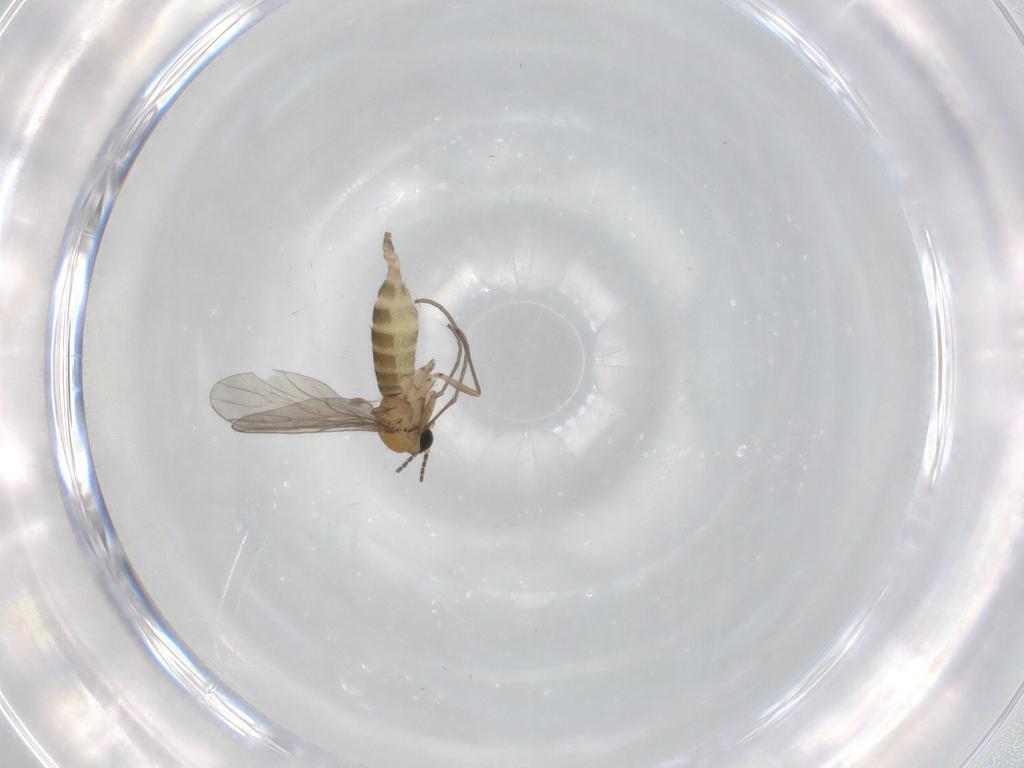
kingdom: Animalia
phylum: Arthropoda
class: Insecta
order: Diptera
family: Sciaridae
